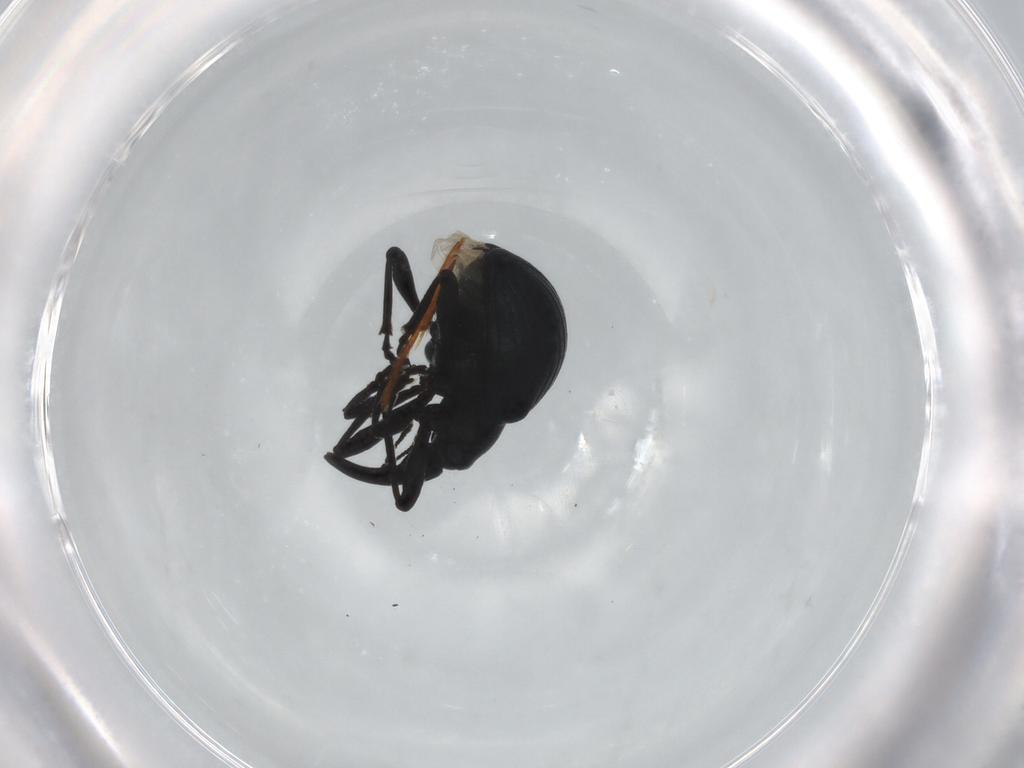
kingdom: Animalia
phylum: Arthropoda
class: Insecta
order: Coleoptera
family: Apionidae
